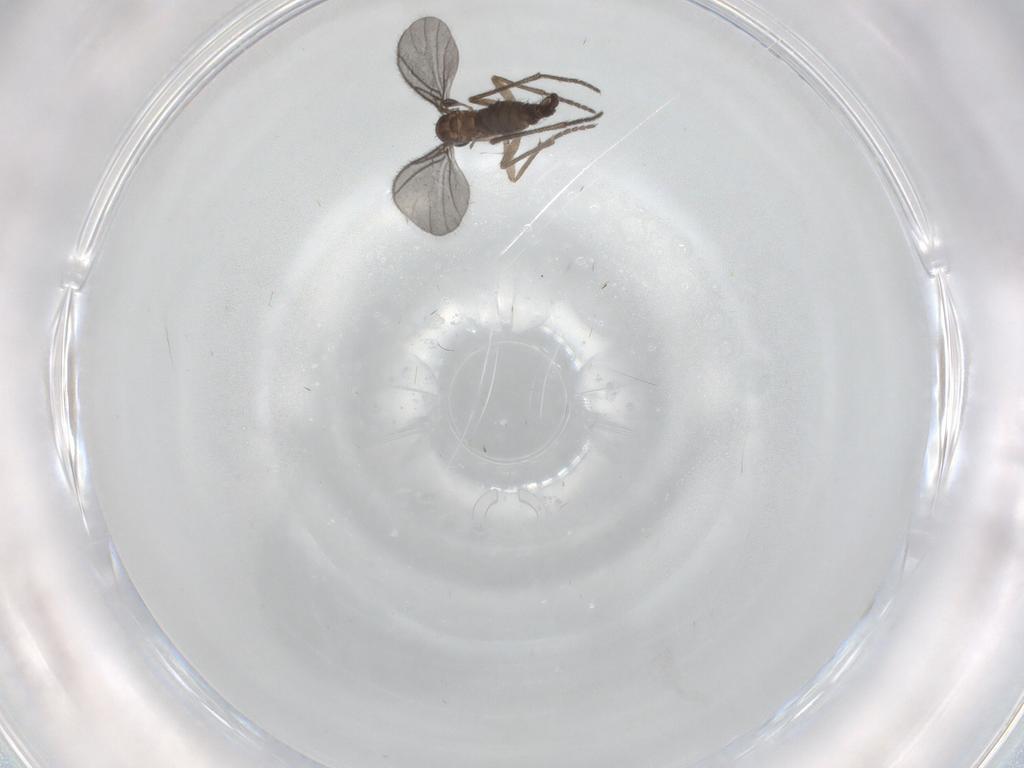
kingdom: Animalia
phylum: Arthropoda
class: Insecta
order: Diptera
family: Sciaridae
